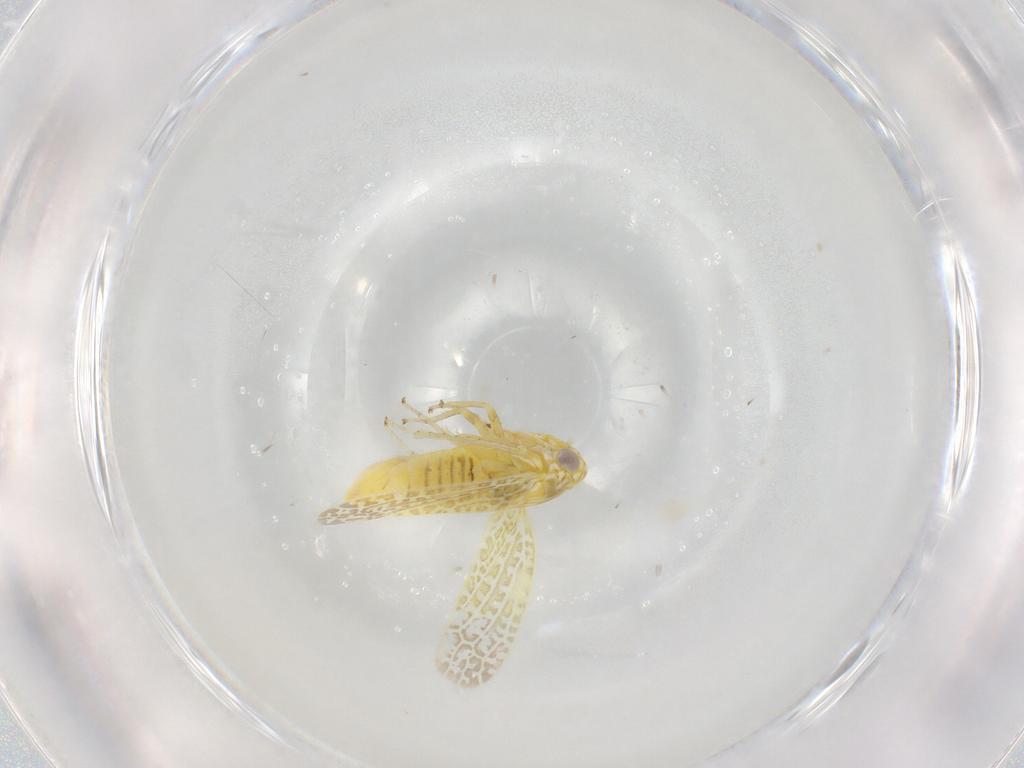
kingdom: Animalia
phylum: Arthropoda
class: Insecta
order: Hemiptera
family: Cicadellidae
